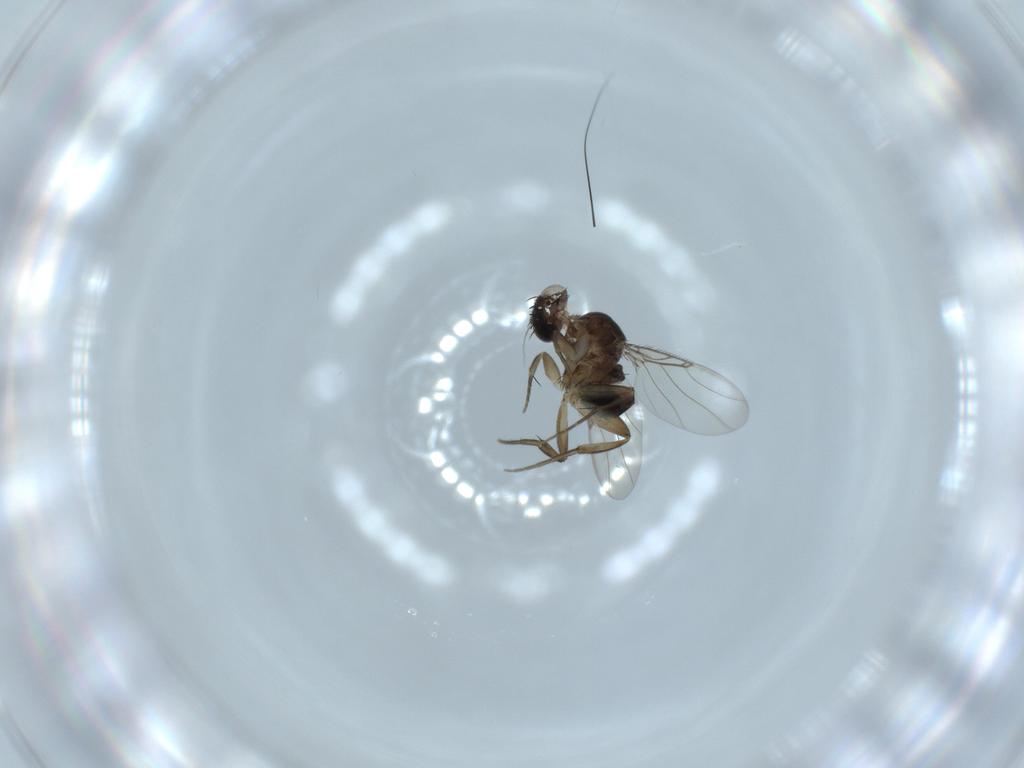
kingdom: Animalia
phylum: Arthropoda
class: Insecta
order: Diptera
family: Phoridae
